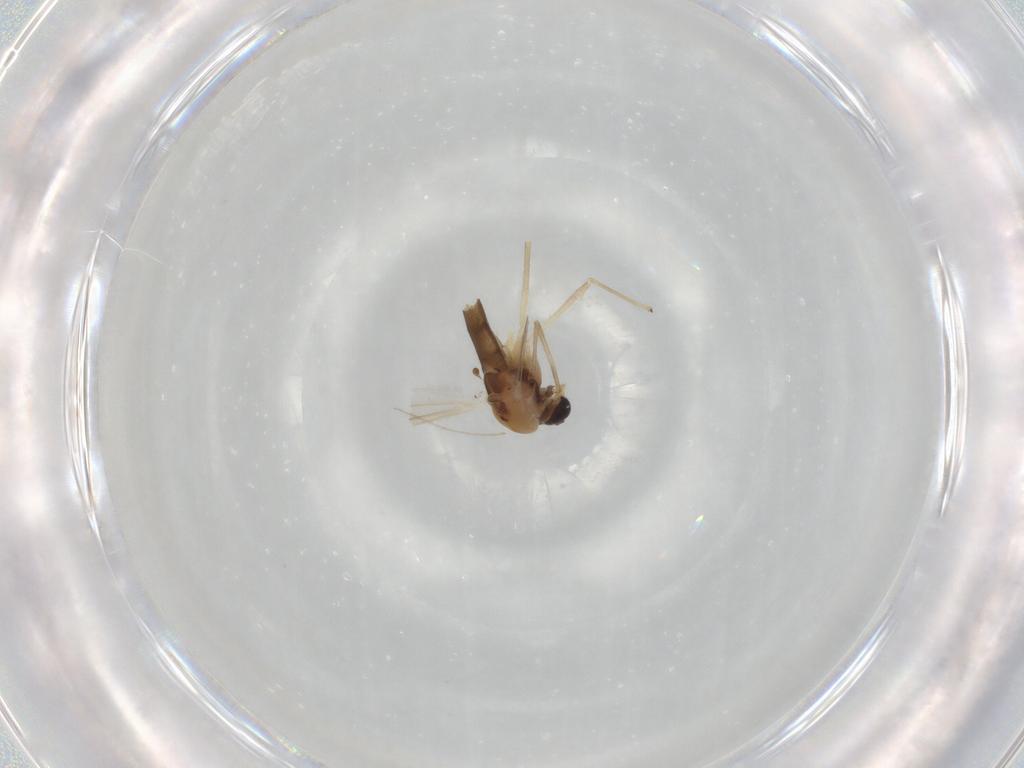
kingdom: Animalia
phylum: Arthropoda
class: Insecta
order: Diptera
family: Chironomidae
